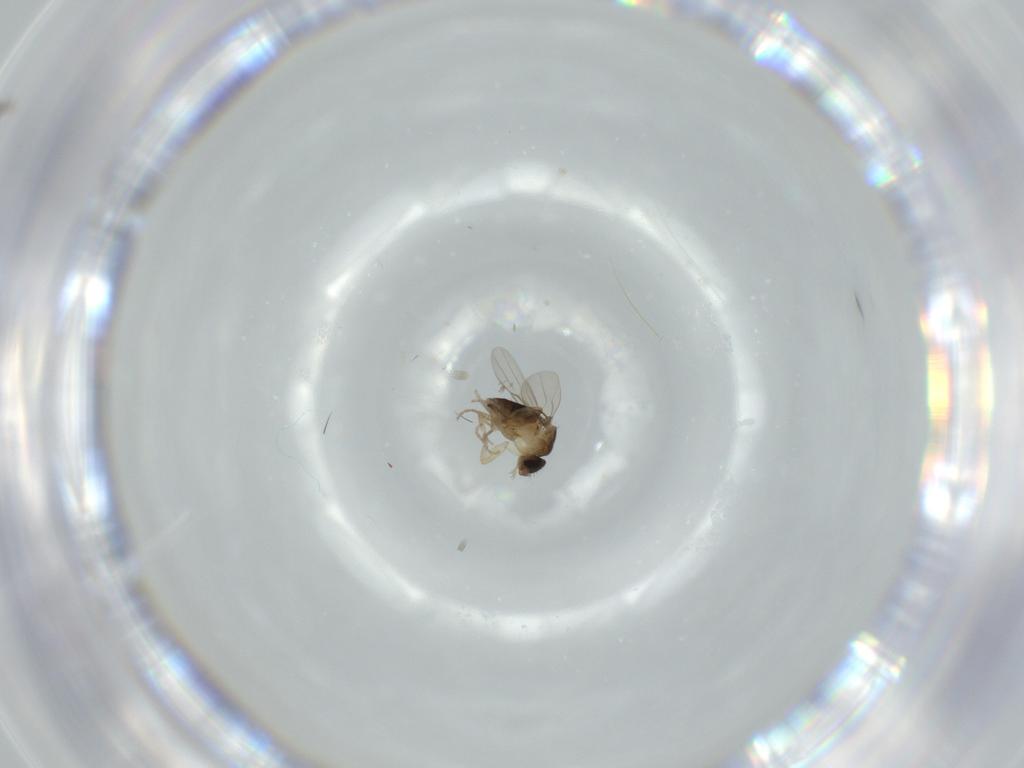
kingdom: Animalia
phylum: Arthropoda
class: Insecta
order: Diptera
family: Phoridae
